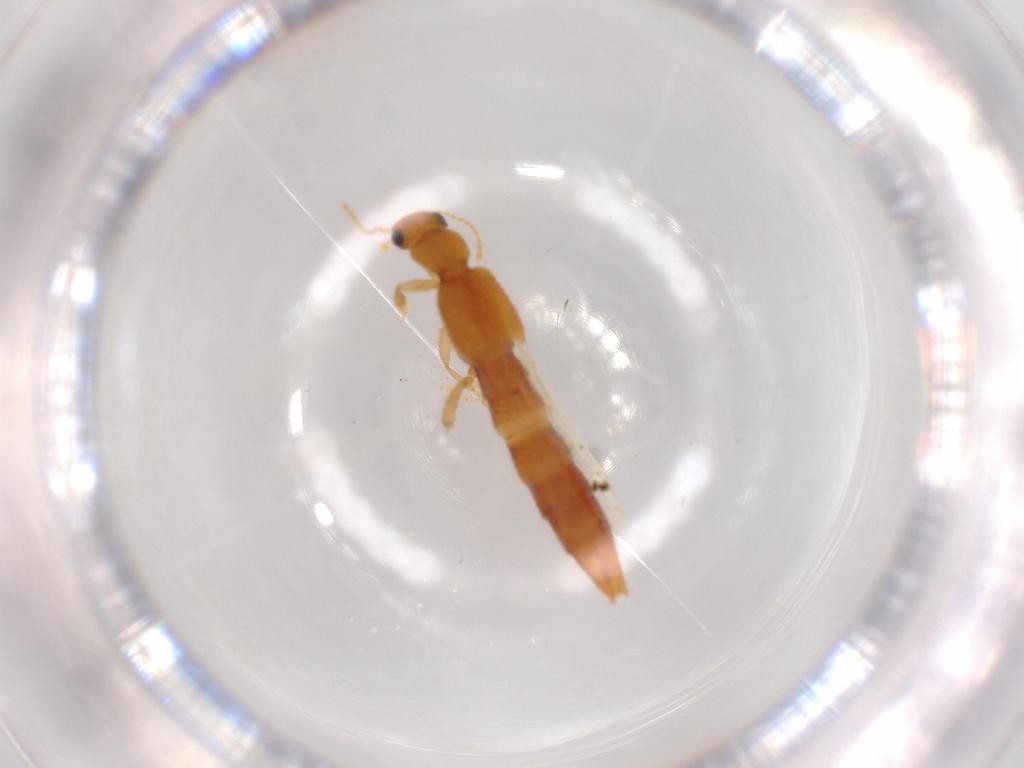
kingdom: Animalia
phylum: Arthropoda
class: Insecta
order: Coleoptera
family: Staphylinidae
